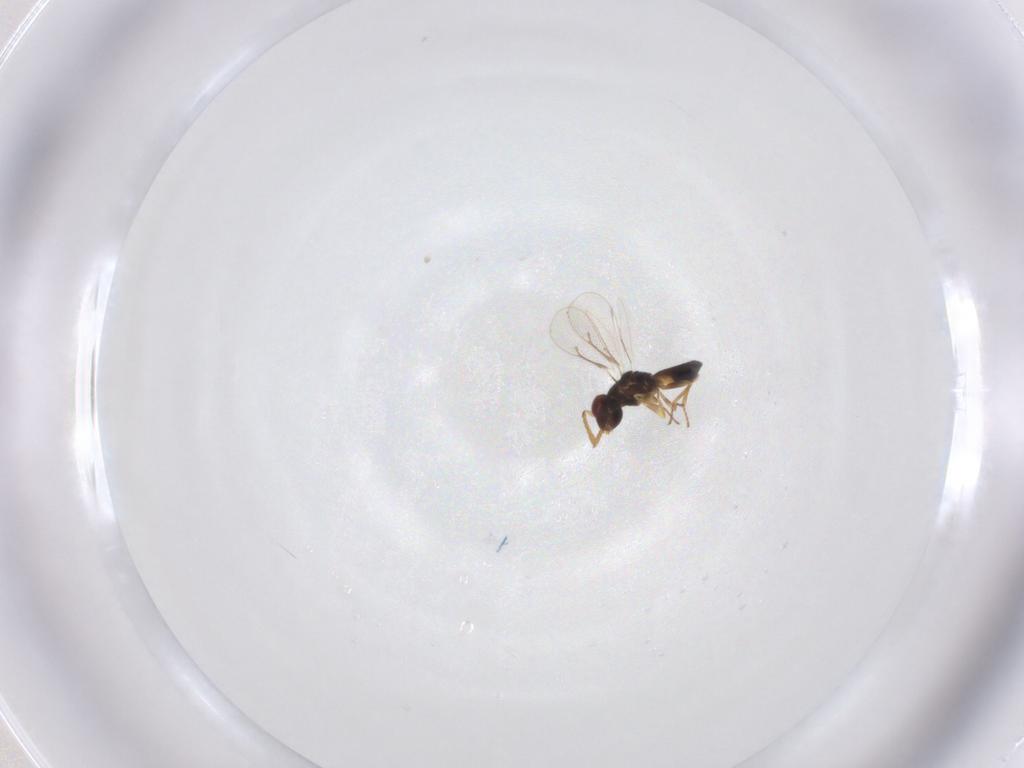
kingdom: Animalia
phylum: Arthropoda
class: Insecta
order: Hymenoptera
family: Eulophidae
